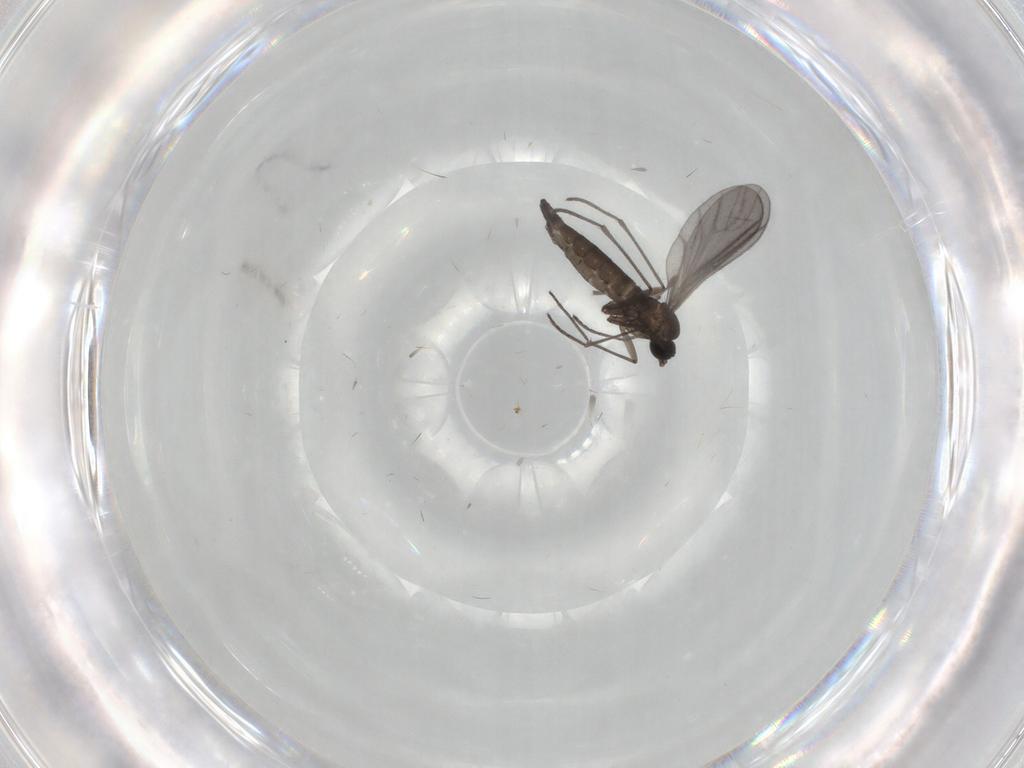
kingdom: Animalia
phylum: Arthropoda
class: Insecta
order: Diptera
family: Sciaridae
